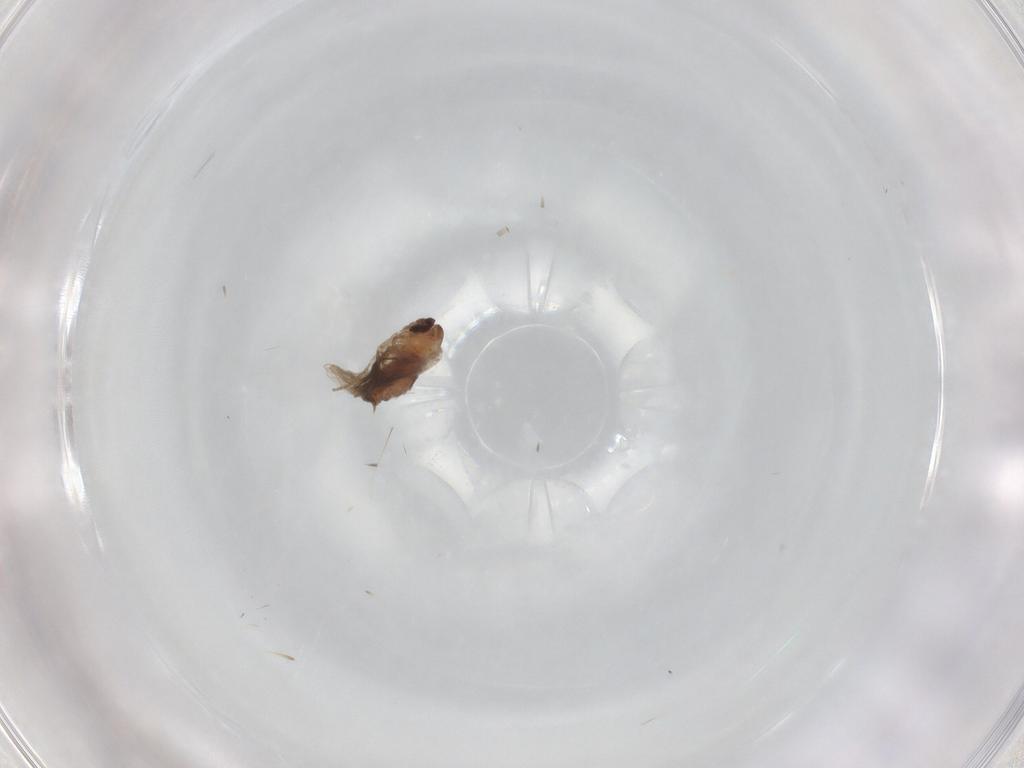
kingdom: Animalia
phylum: Arthropoda
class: Insecta
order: Diptera
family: Psychodidae
